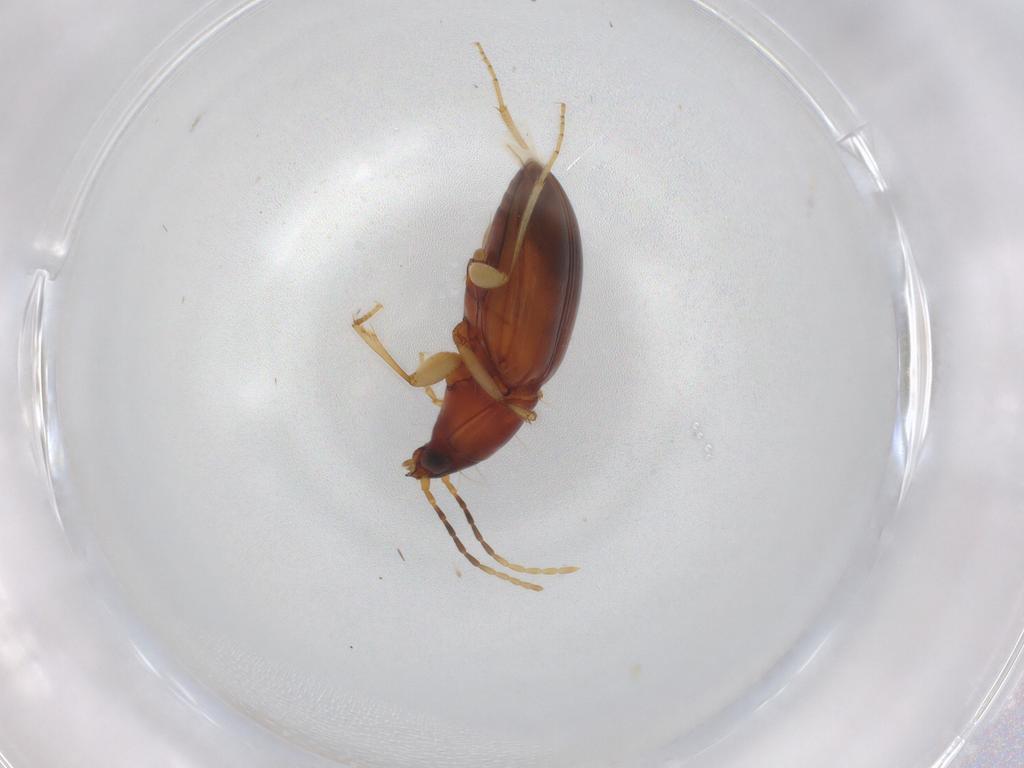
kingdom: Animalia
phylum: Arthropoda
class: Insecta
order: Coleoptera
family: Carabidae
